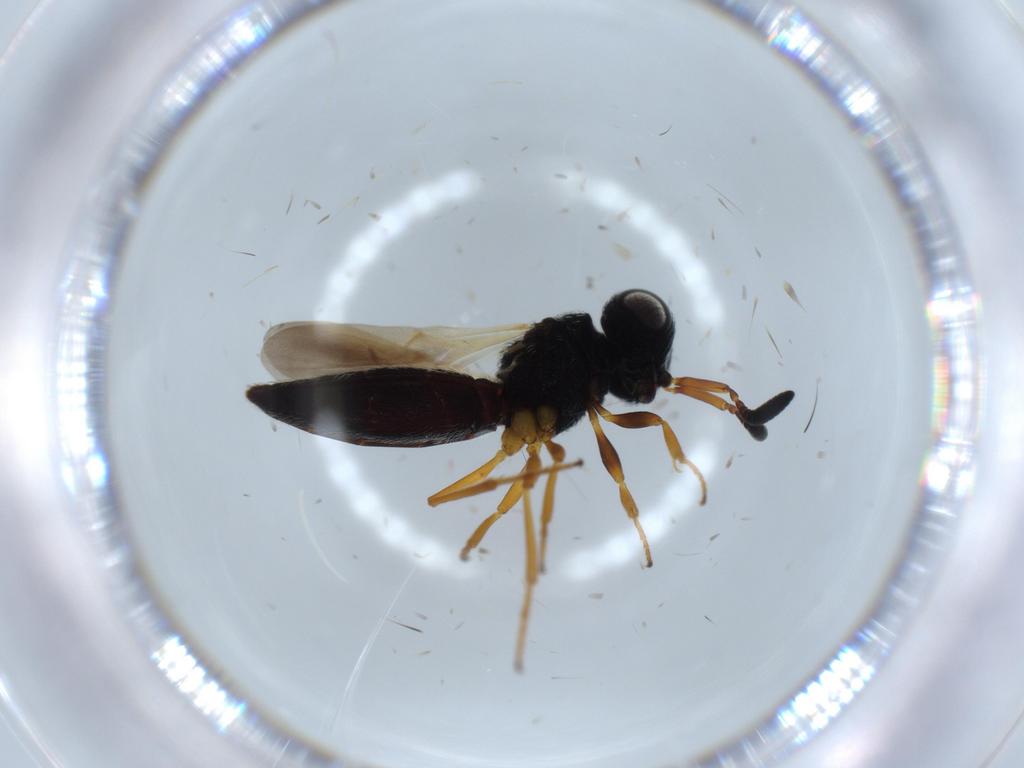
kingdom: Animalia
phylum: Arthropoda
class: Insecta
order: Hymenoptera
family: Scelionidae
